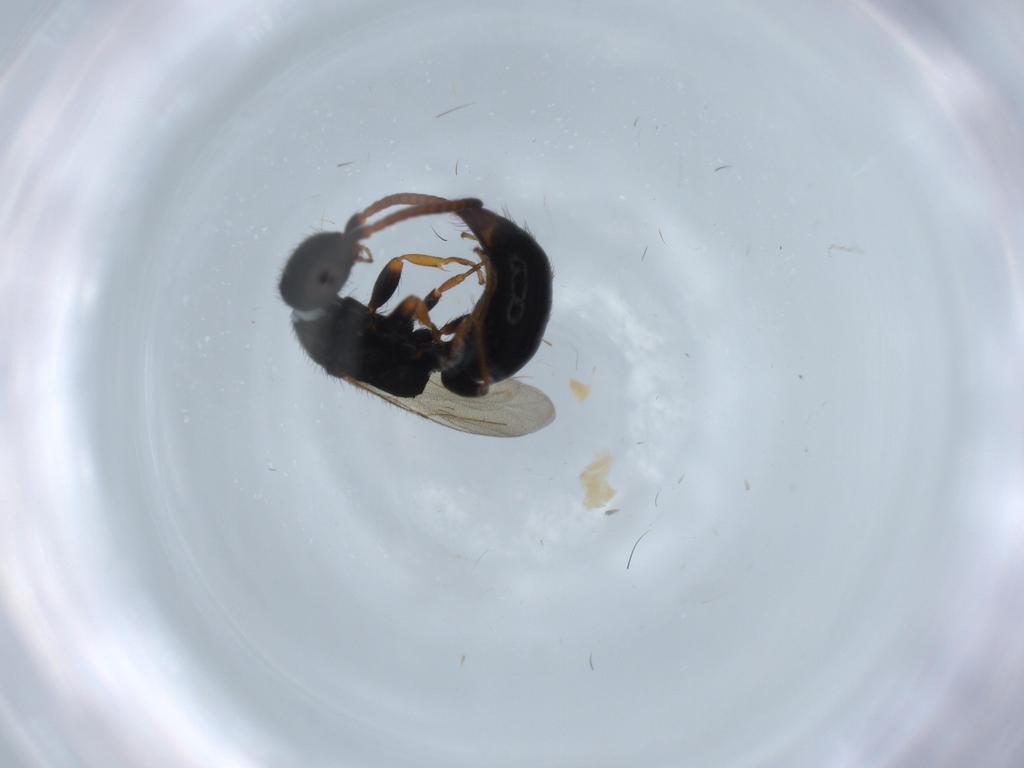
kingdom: Animalia
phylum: Arthropoda
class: Insecta
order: Hymenoptera
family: Bethylidae
